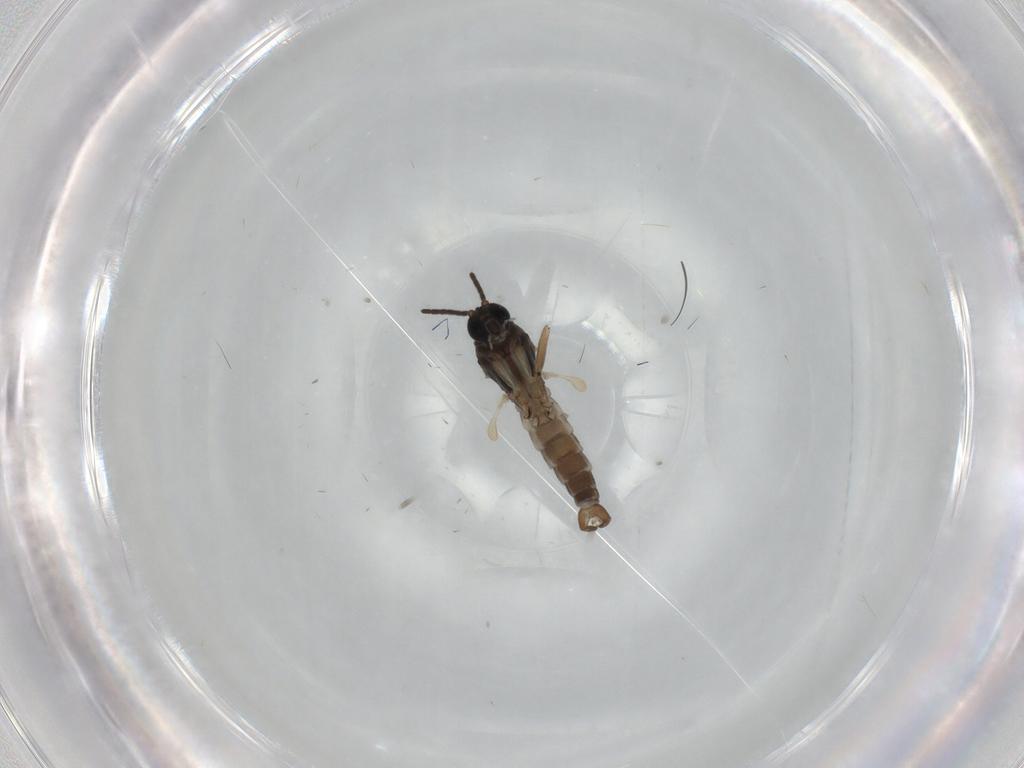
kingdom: Animalia
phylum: Arthropoda
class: Insecta
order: Diptera
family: Sciaridae
